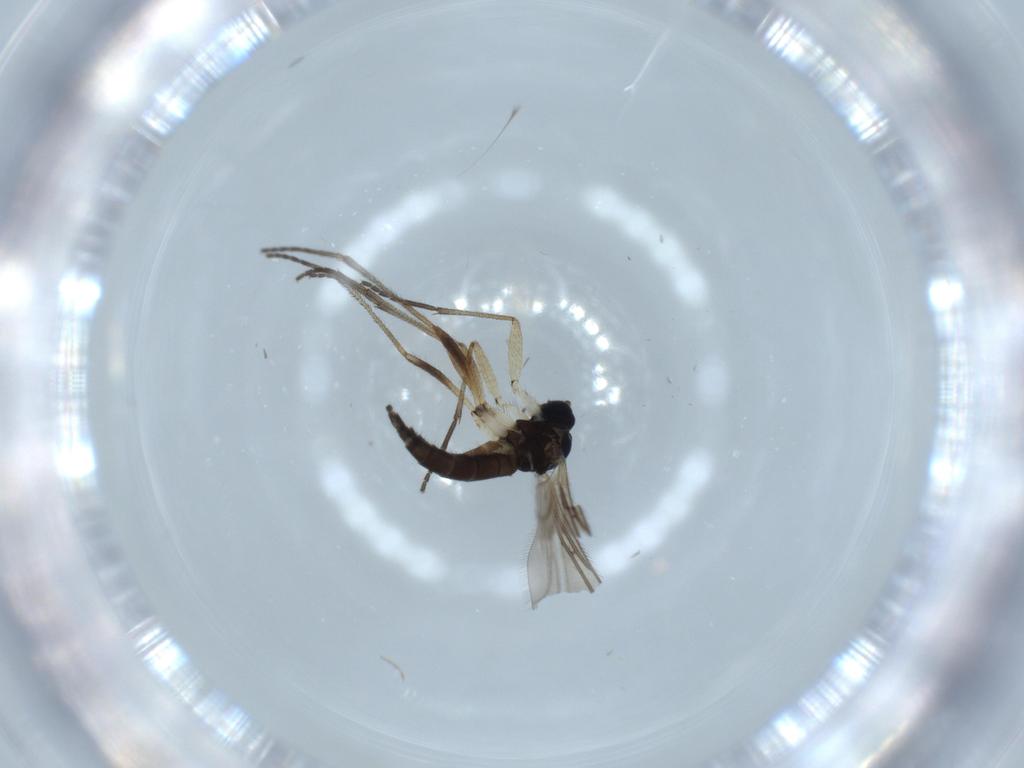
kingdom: Animalia
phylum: Arthropoda
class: Insecta
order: Diptera
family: Sciaridae
